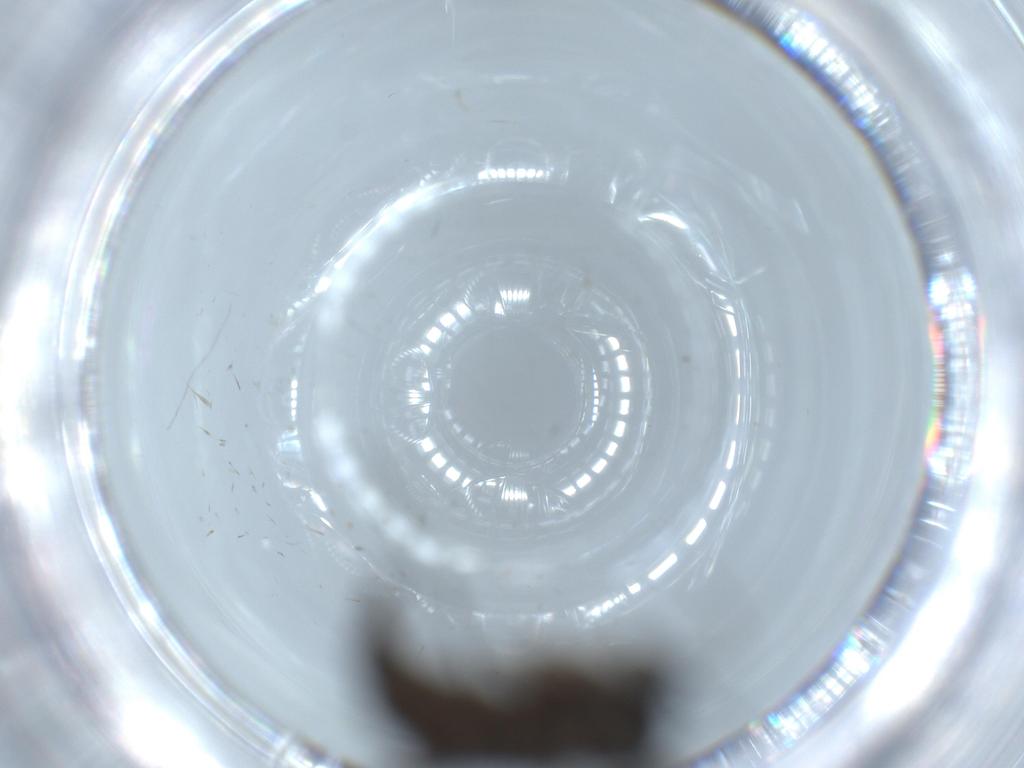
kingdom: Animalia
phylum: Arthropoda
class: Insecta
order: Diptera
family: Sciaridae
